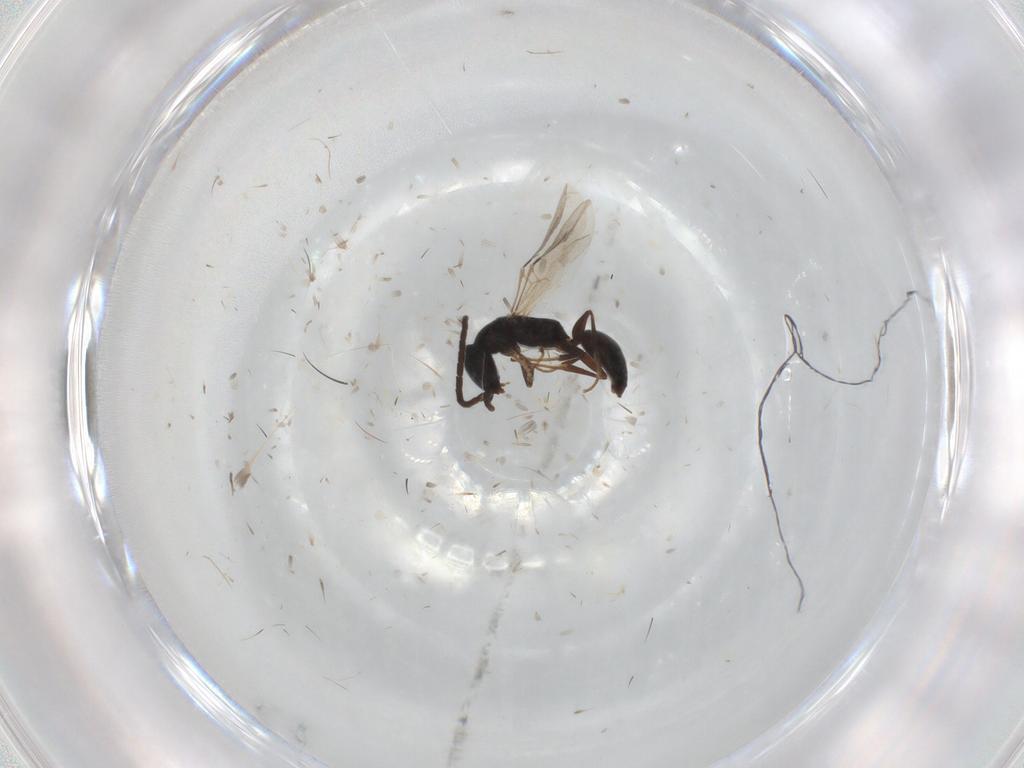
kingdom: Animalia
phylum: Arthropoda
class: Insecta
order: Hymenoptera
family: Bethylidae
